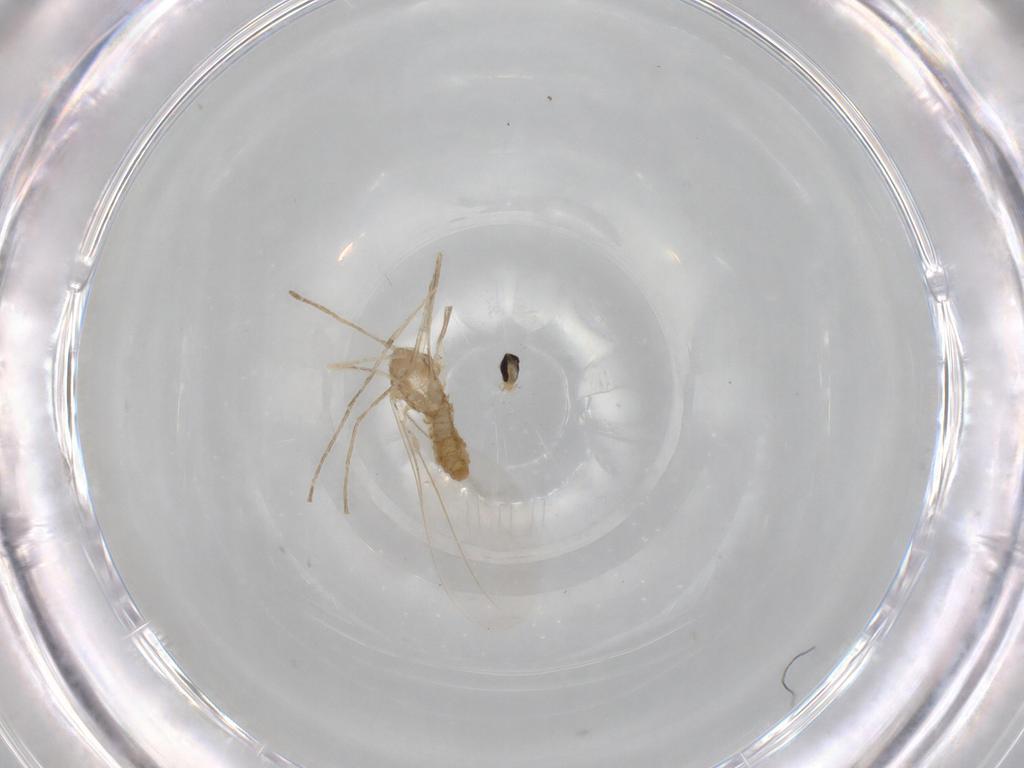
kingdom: Animalia
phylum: Arthropoda
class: Insecta
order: Diptera
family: Cecidomyiidae
